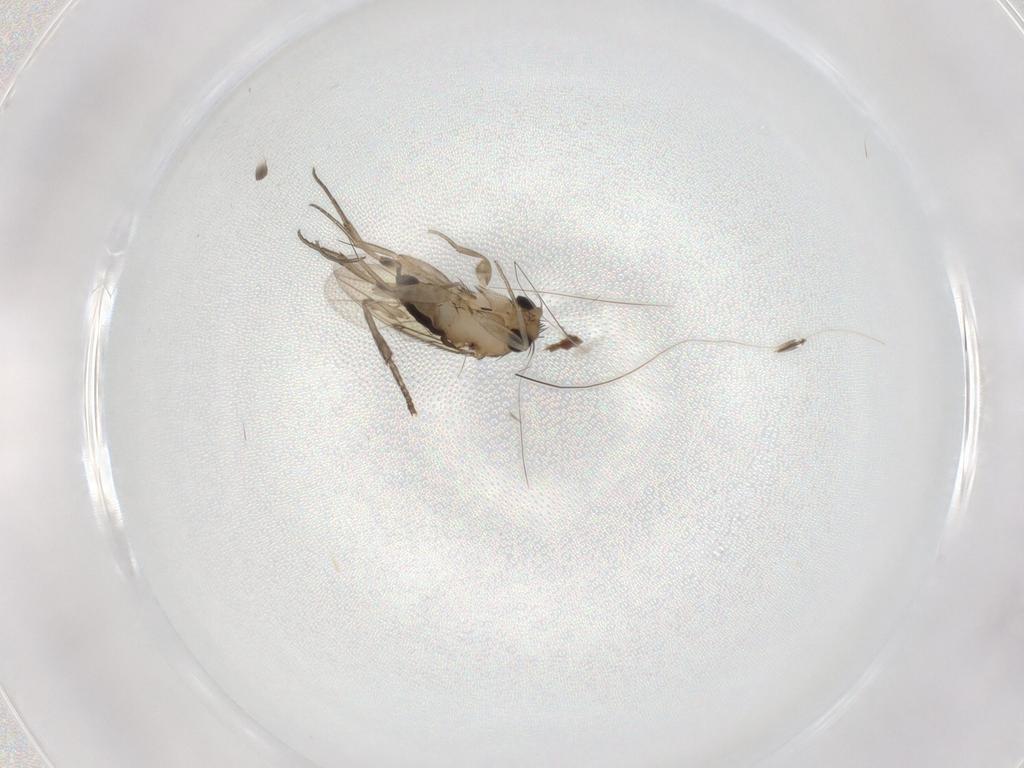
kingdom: Animalia
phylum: Arthropoda
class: Insecta
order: Diptera
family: Phoridae
